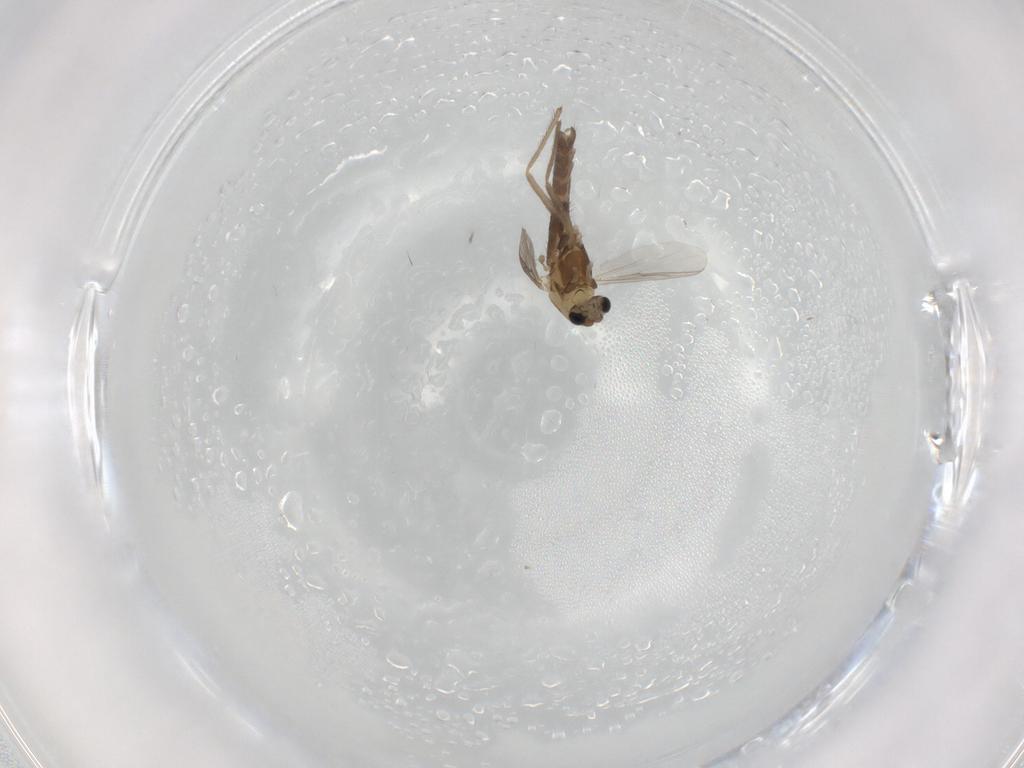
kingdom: Animalia
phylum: Arthropoda
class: Insecta
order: Diptera
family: Chironomidae
